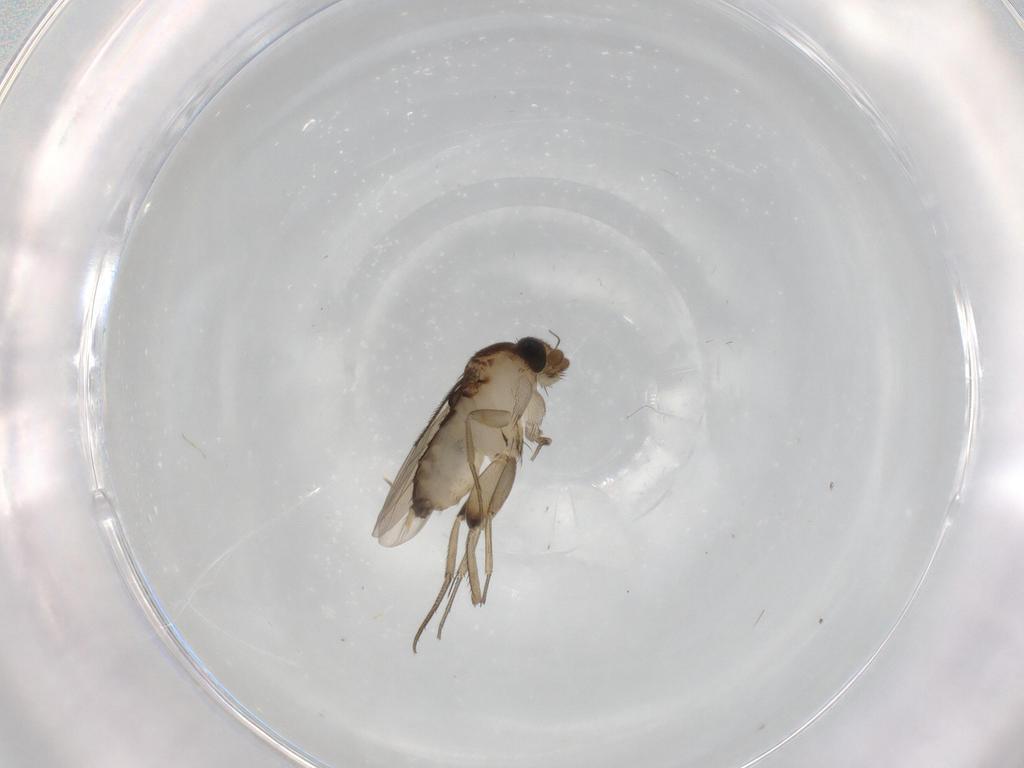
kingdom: Animalia
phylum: Arthropoda
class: Insecta
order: Diptera
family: Phoridae
